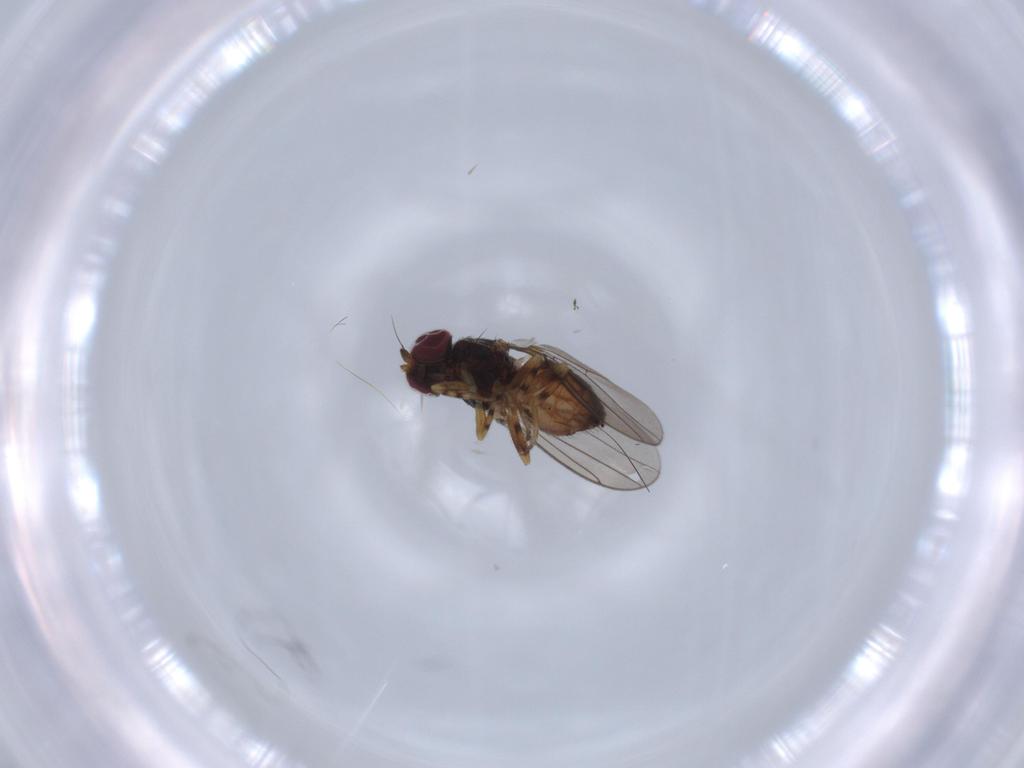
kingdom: Animalia
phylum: Arthropoda
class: Insecta
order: Diptera
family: Chloropidae
